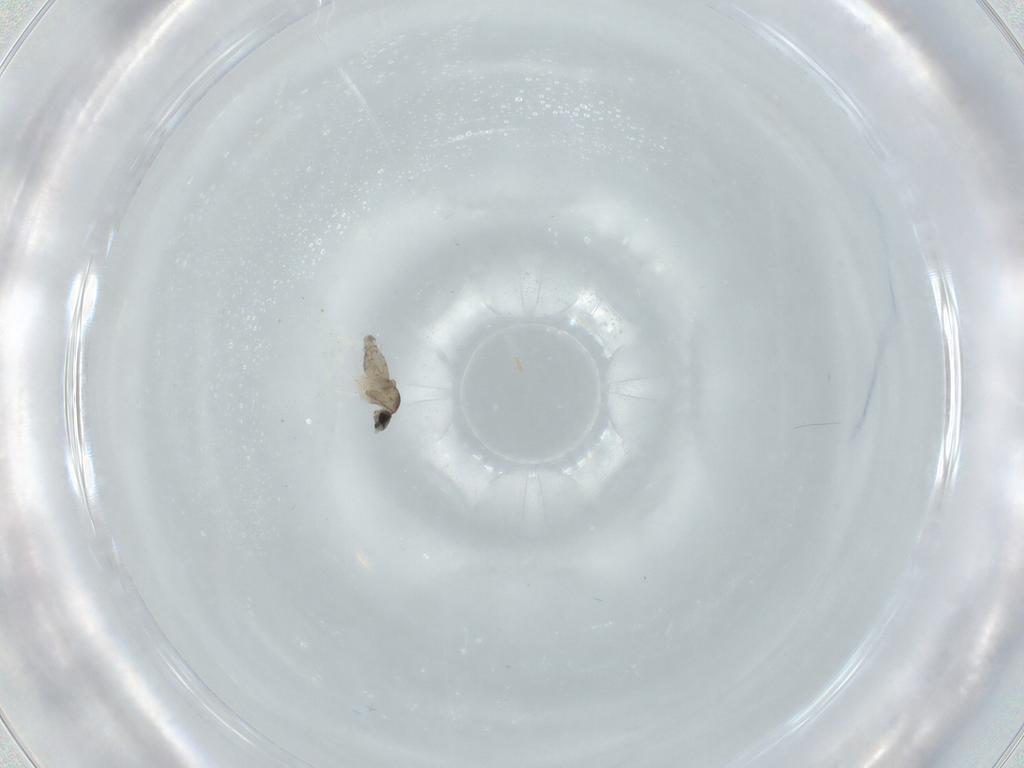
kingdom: Animalia
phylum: Arthropoda
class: Insecta
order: Diptera
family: Cecidomyiidae
